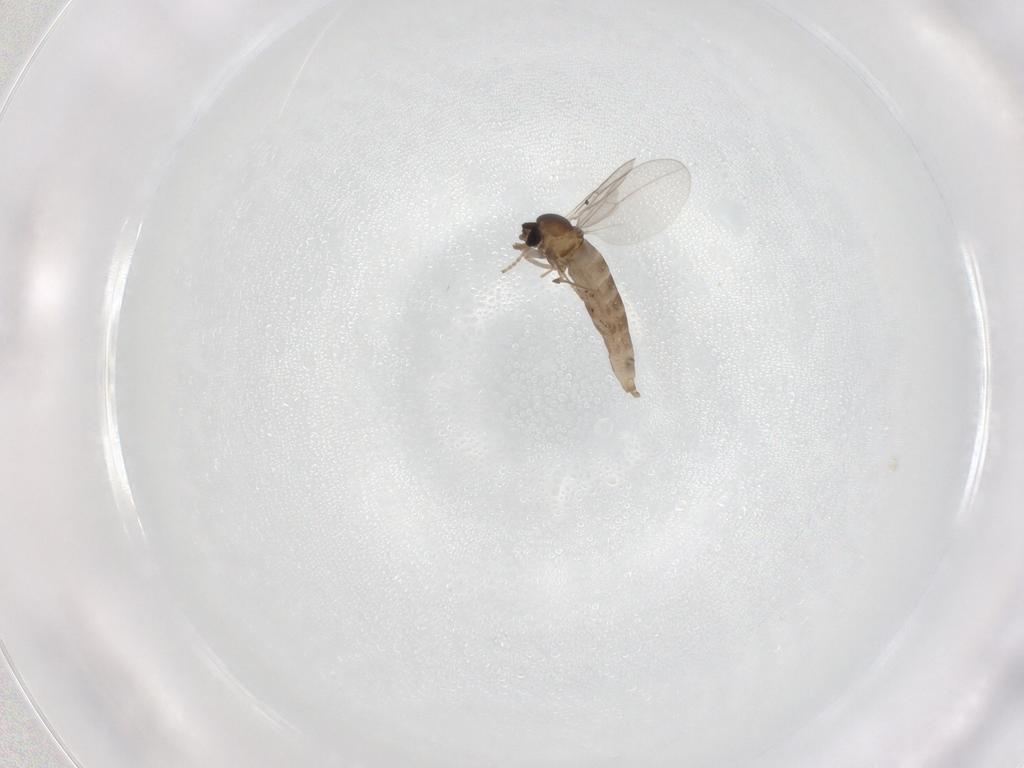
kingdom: Animalia
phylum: Arthropoda
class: Insecta
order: Diptera
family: Cecidomyiidae
